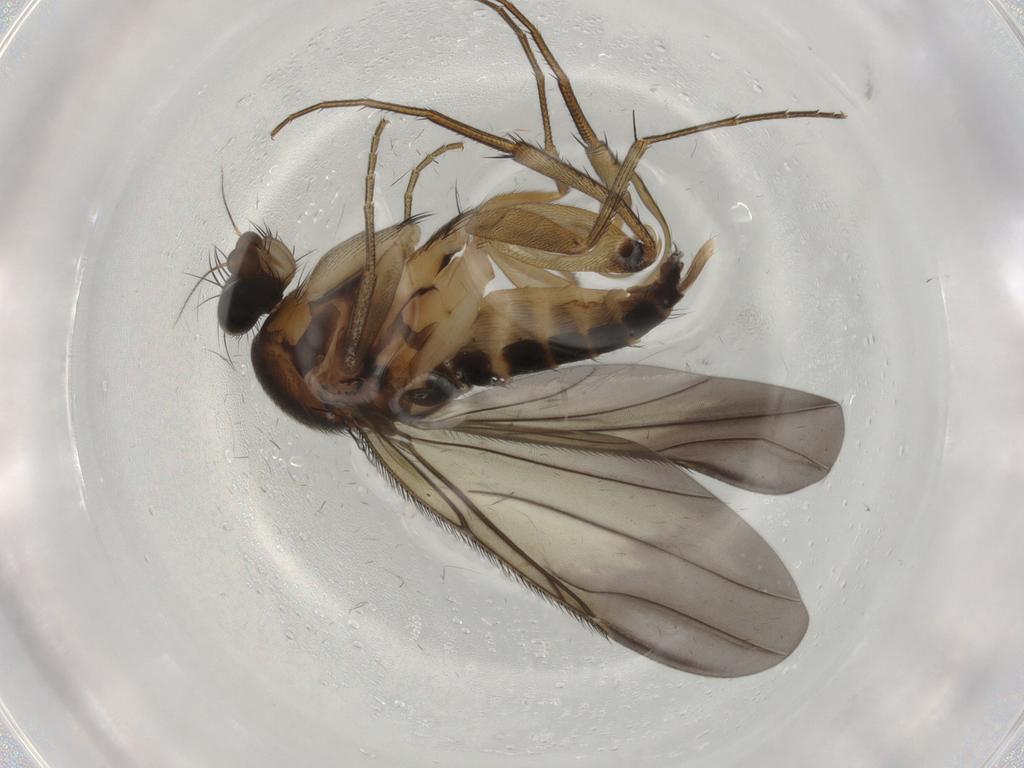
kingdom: Animalia
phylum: Arthropoda
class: Insecta
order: Diptera
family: Phoridae
